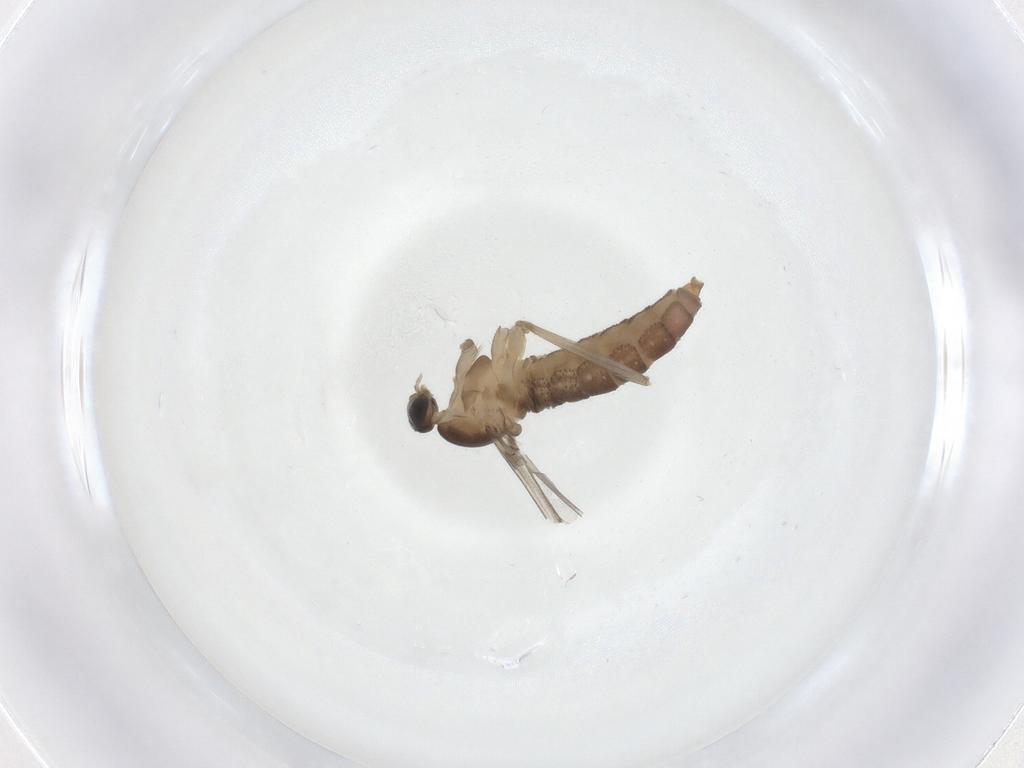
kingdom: Animalia
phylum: Arthropoda
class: Insecta
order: Diptera
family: Cecidomyiidae
